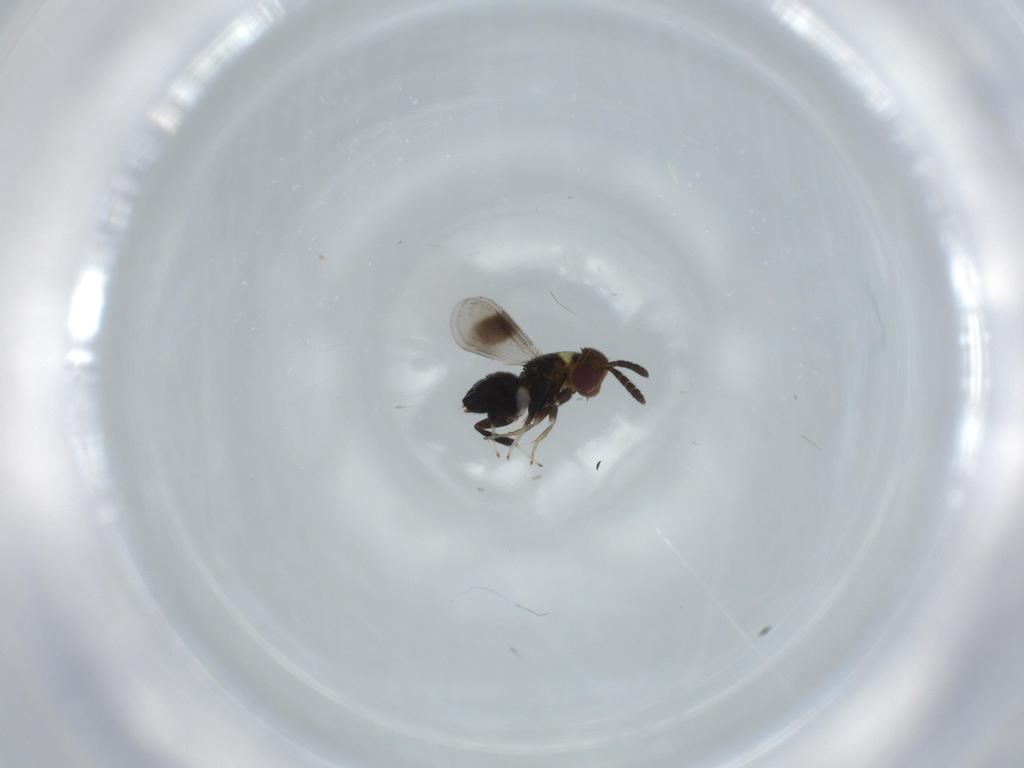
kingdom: Animalia
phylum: Arthropoda
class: Insecta
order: Hymenoptera
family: Aphelinidae
